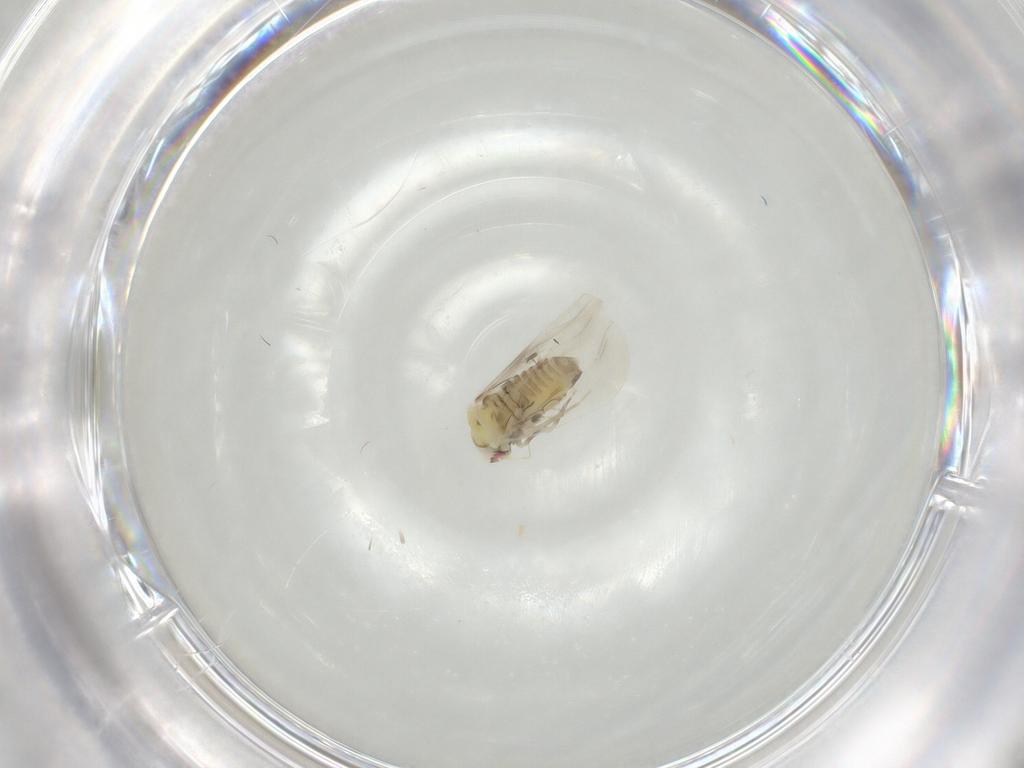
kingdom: Animalia
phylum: Arthropoda
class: Insecta
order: Hemiptera
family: Aleyrodidae
